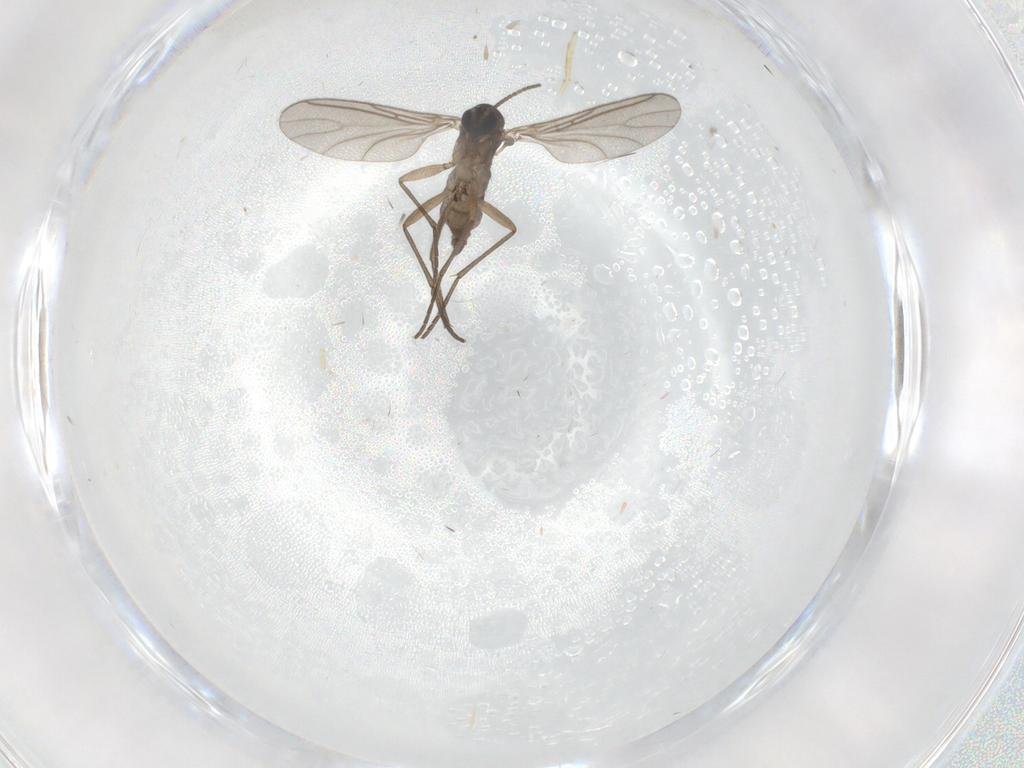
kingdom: Animalia
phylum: Arthropoda
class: Insecta
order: Diptera
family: Sciaridae
